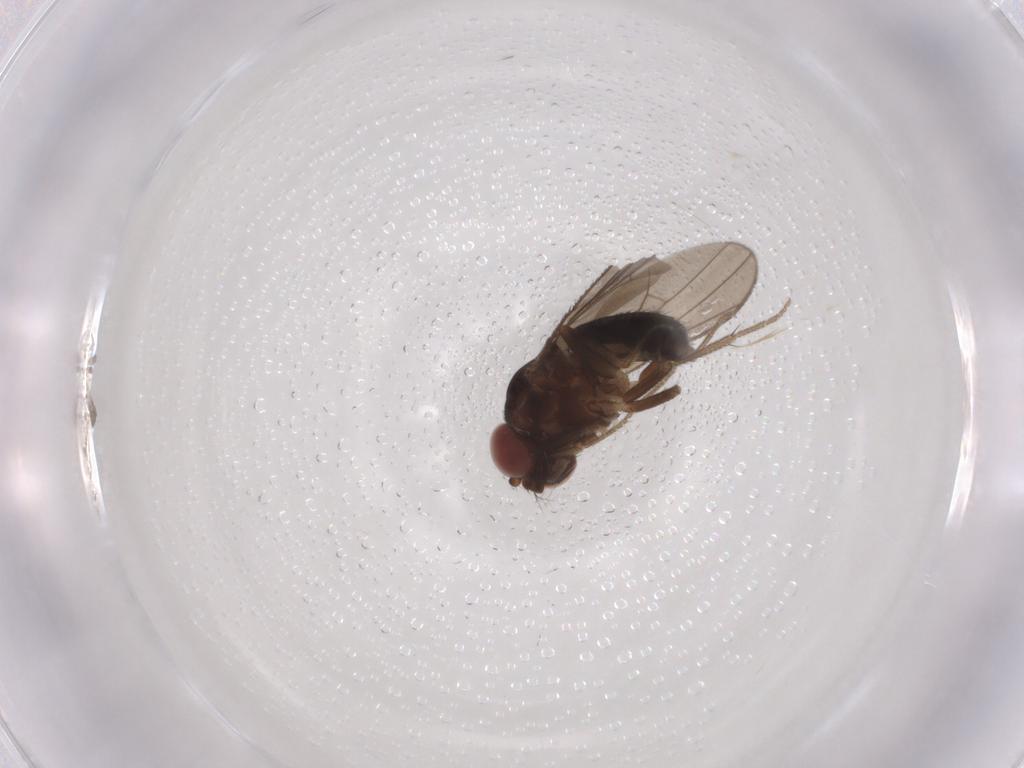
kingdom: Animalia
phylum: Arthropoda
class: Insecta
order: Diptera
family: Drosophilidae
